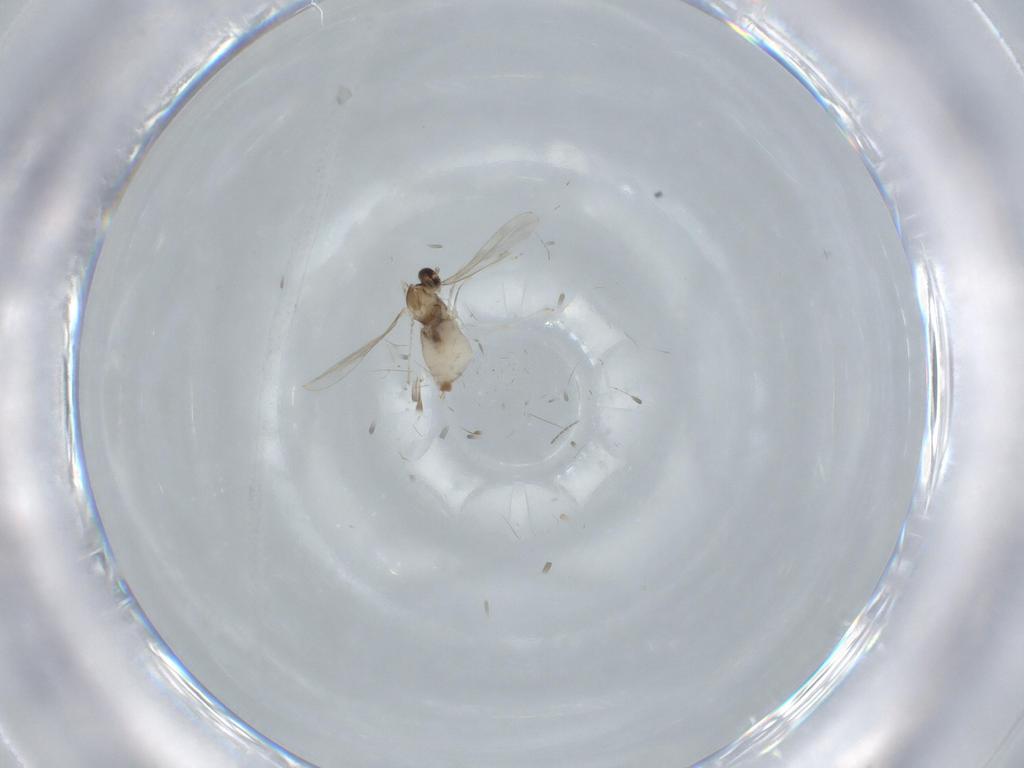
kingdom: Animalia
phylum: Arthropoda
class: Insecta
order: Diptera
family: Cecidomyiidae
